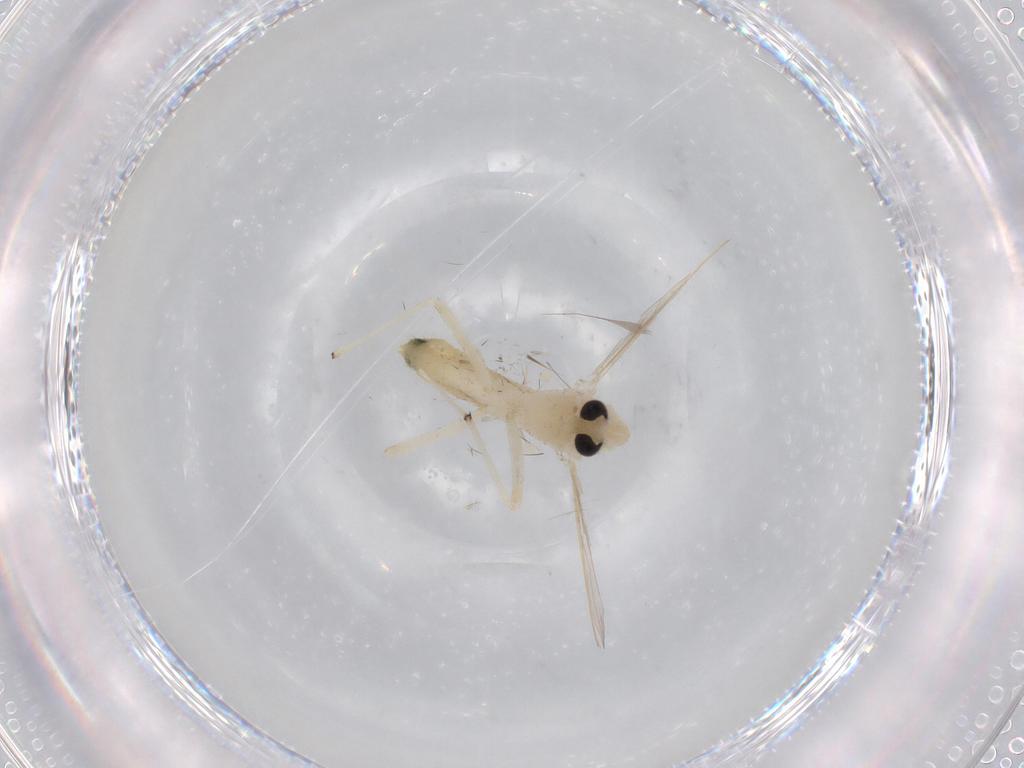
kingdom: Animalia
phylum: Arthropoda
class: Insecta
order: Diptera
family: Chironomidae
